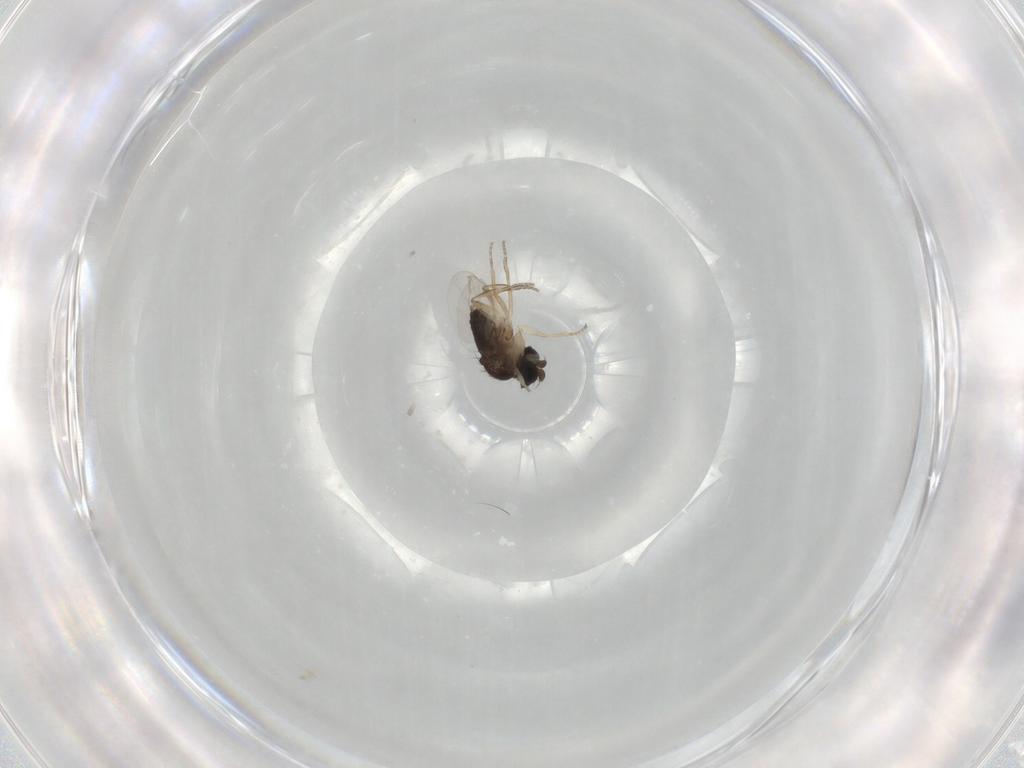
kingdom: Animalia
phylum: Arthropoda
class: Insecta
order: Diptera
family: Phoridae
